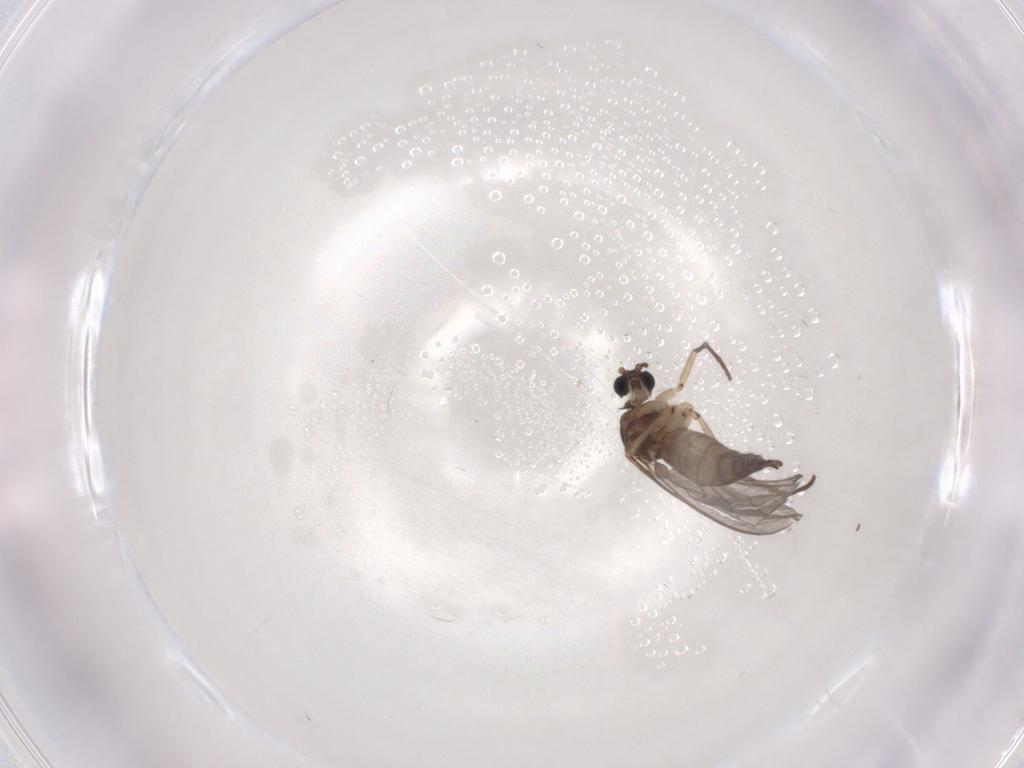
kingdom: Animalia
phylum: Arthropoda
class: Insecta
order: Diptera
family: Sciaridae
